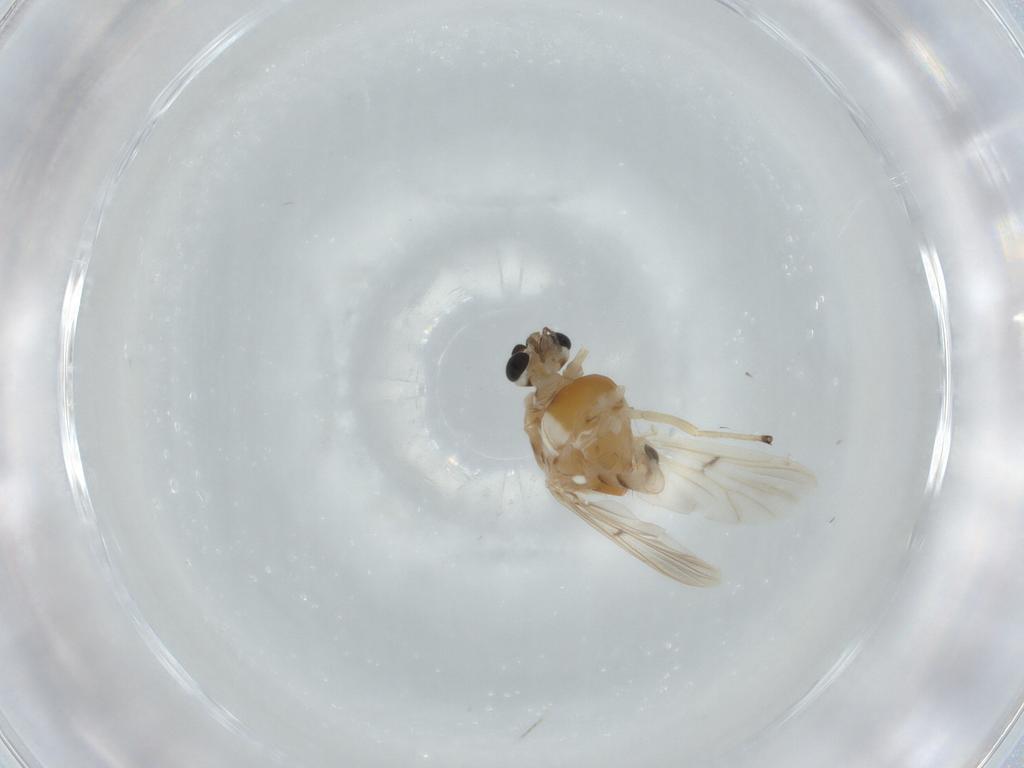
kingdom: Animalia
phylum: Arthropoda
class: Insecta
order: Diptera
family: Chironomidae
